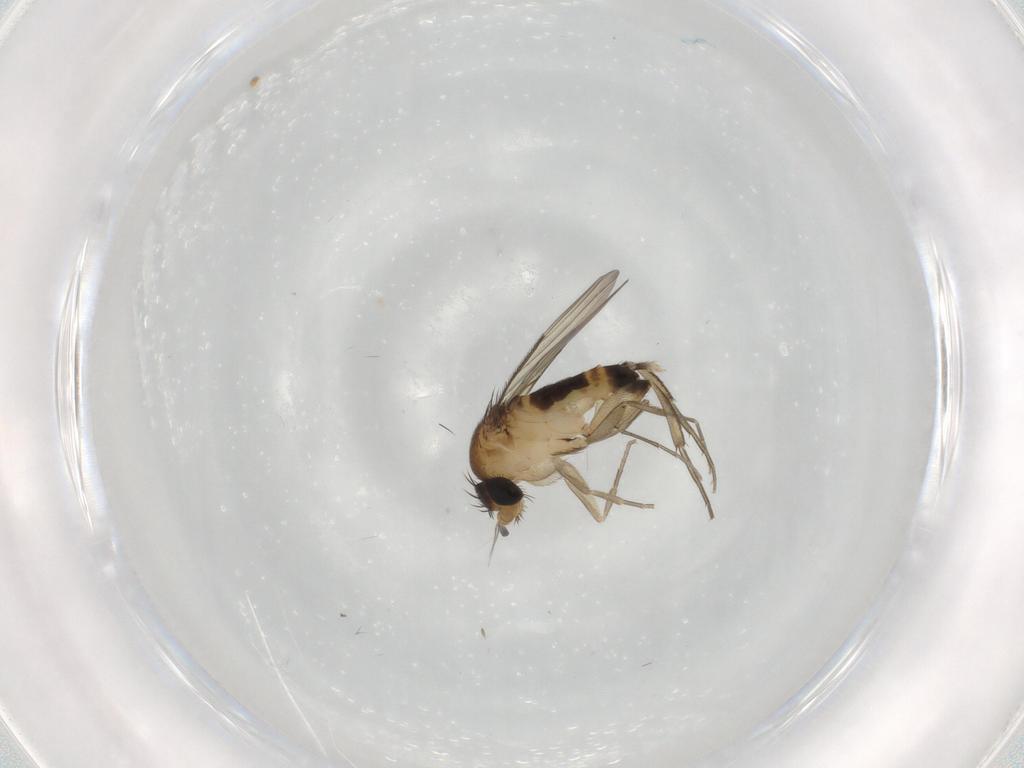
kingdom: Animalia
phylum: Arthropoda
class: Insecta
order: Diptera
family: Phoridae
